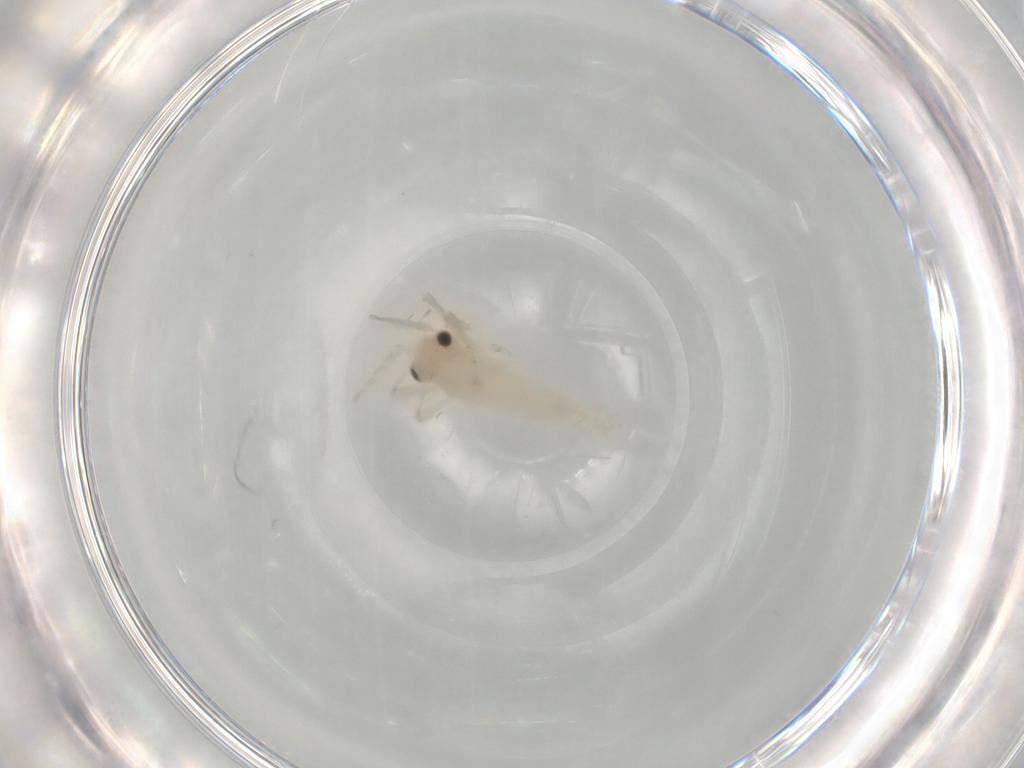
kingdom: Animalia
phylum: Arthropoda
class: Insecta
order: Orthoptera
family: Trigonidiidae
